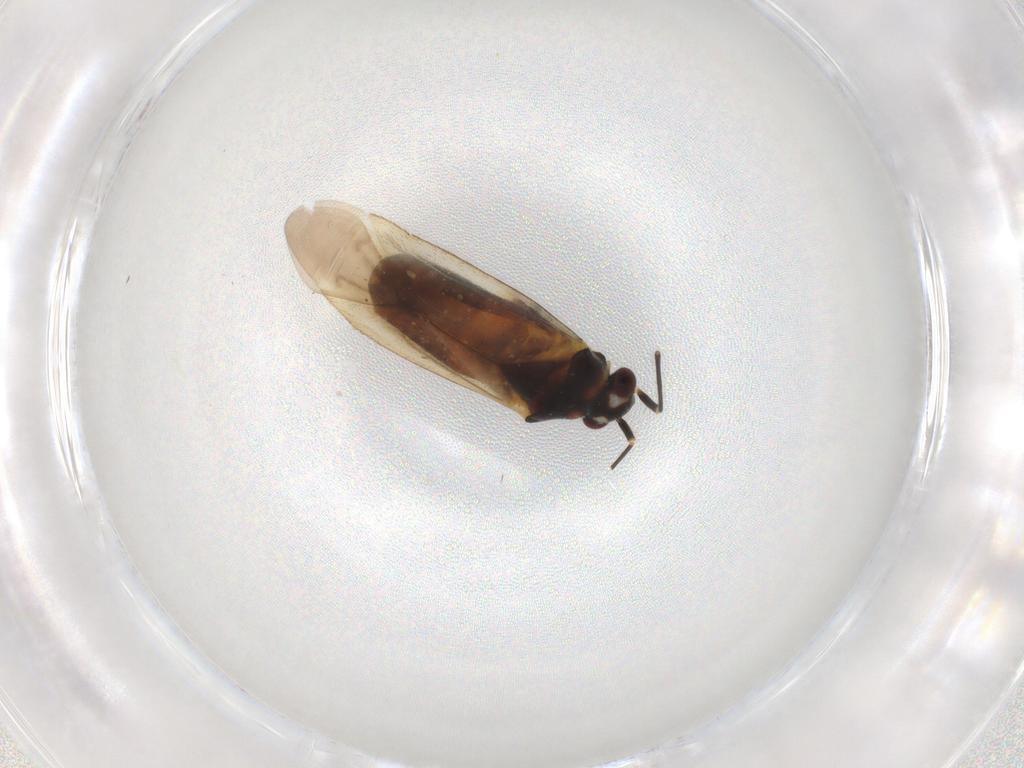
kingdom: Animalia
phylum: Arthropoda
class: Insecta
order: Hemiptera
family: Miridae
